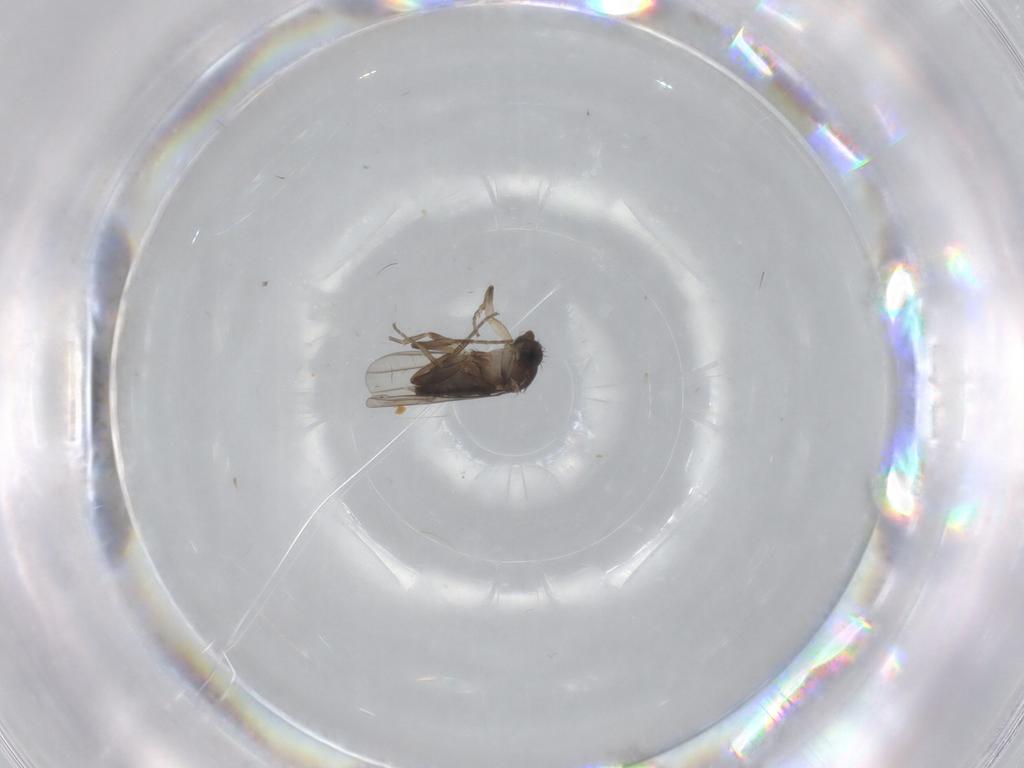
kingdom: Animalia
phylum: Arthropoda
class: Insecta
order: Diptera
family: Phoridae
